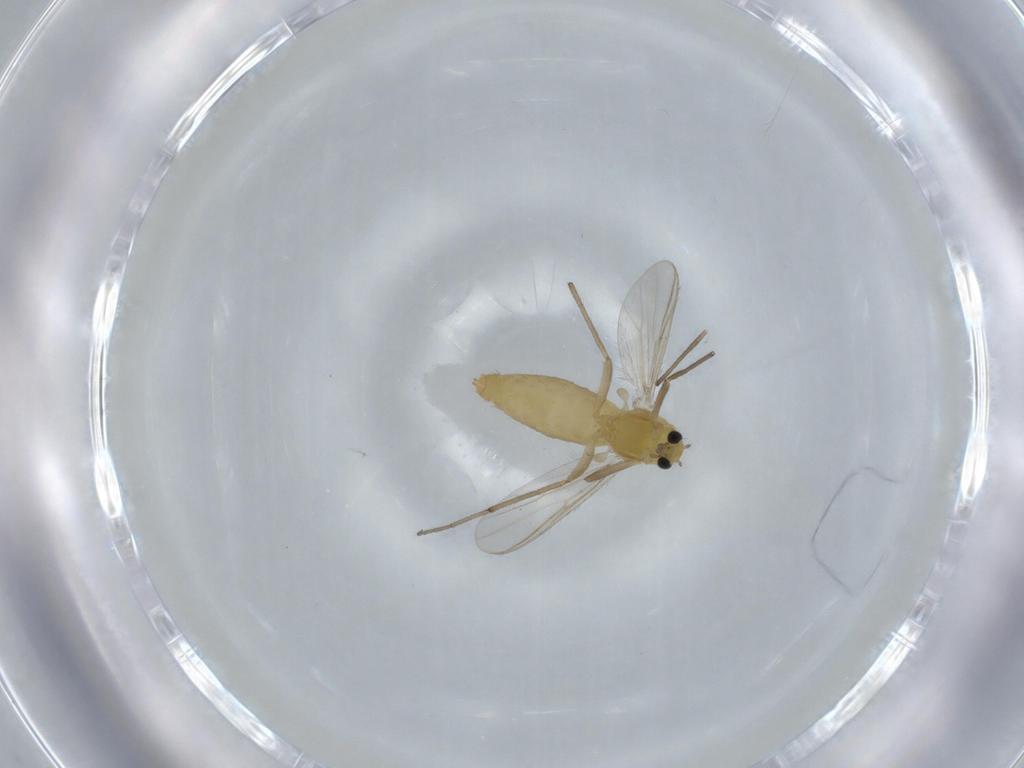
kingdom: Animalia
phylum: Arthropoda
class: Insecta
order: Diptera
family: Chironomidae
